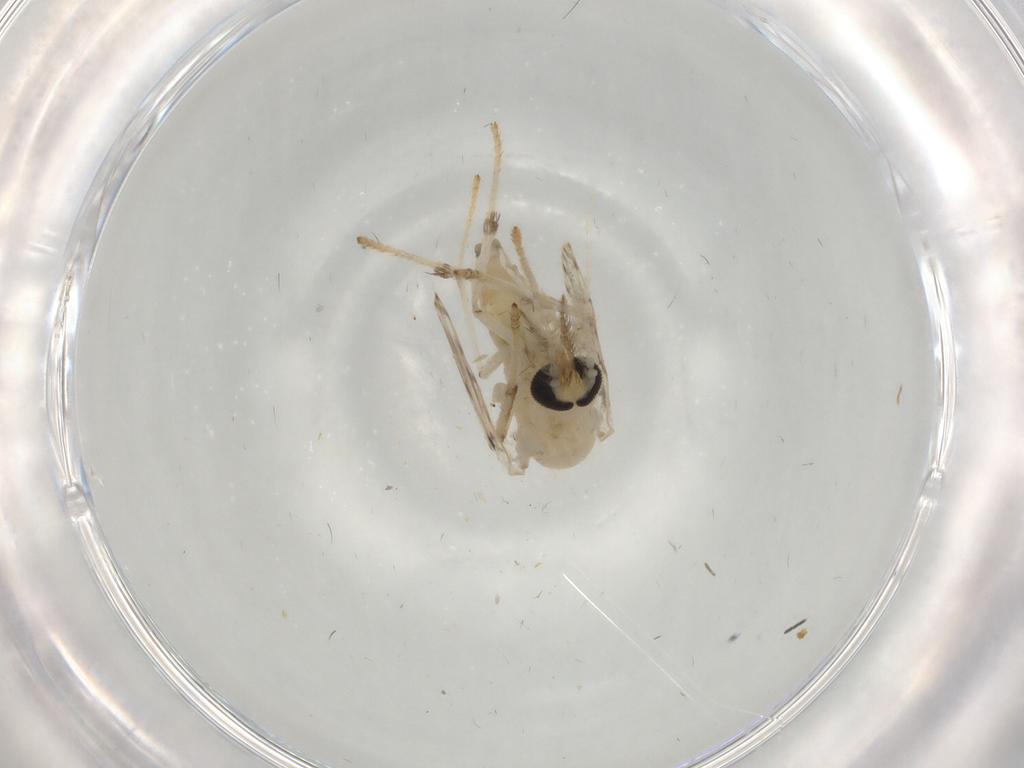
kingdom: Animalia
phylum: Arthropoda
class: Insecta
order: Diptera
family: Psychodidae
